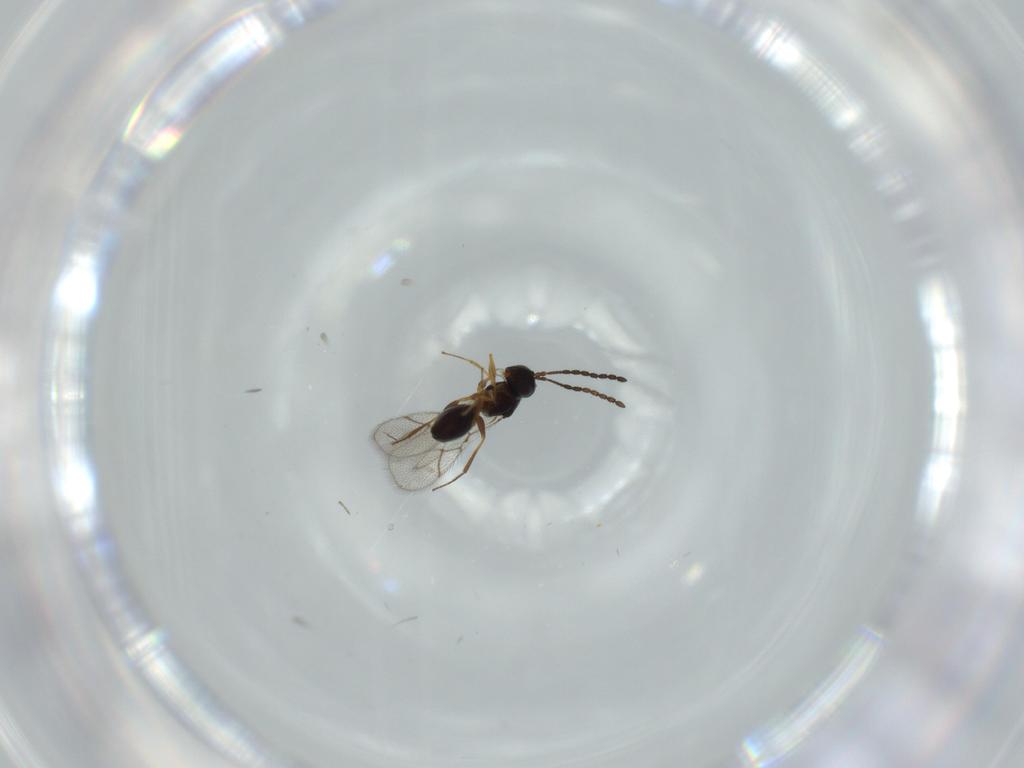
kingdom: Animalia
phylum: Arthropoda
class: Insecta
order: Hymenoptera
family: Figitidae
